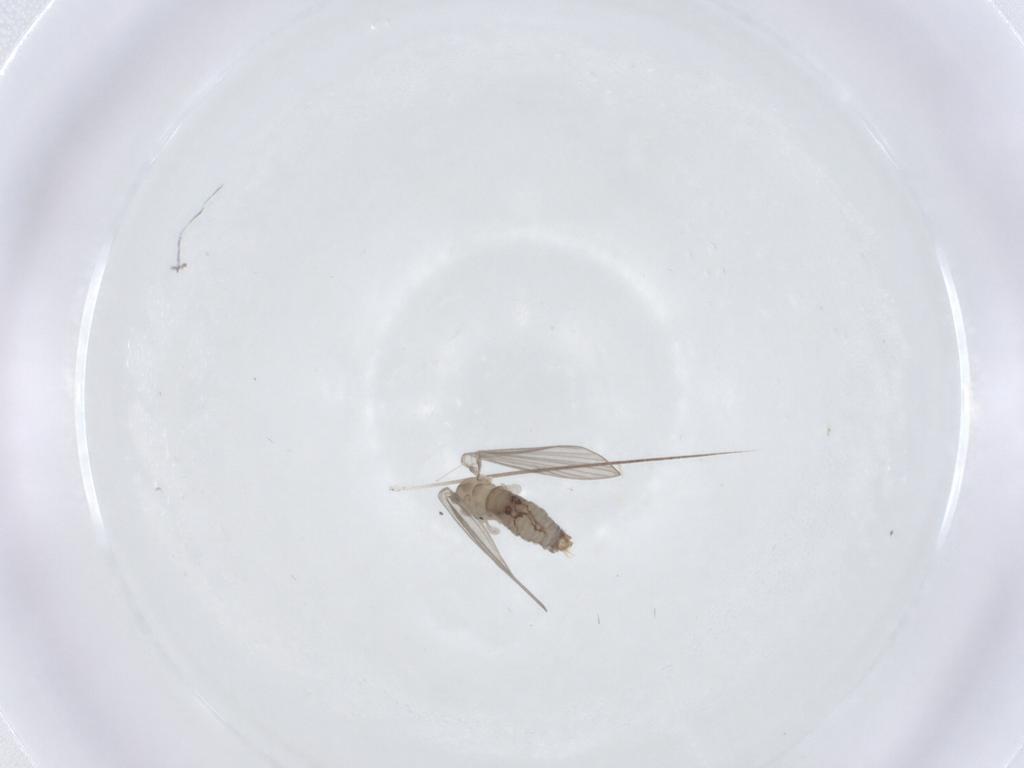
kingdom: Animalia
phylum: Arthropoda
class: Insecta
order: Diptera
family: Psychodidae
